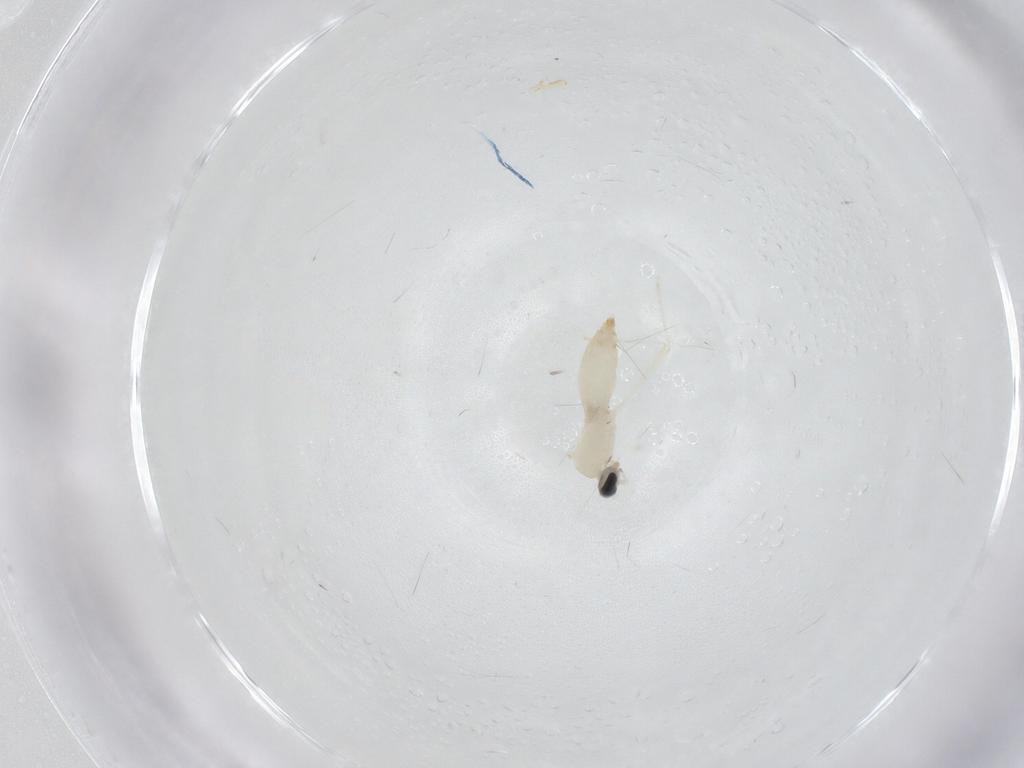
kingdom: Animalia
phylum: Arthropoda
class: Insecta
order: Diptera
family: Cecidomyiidae
